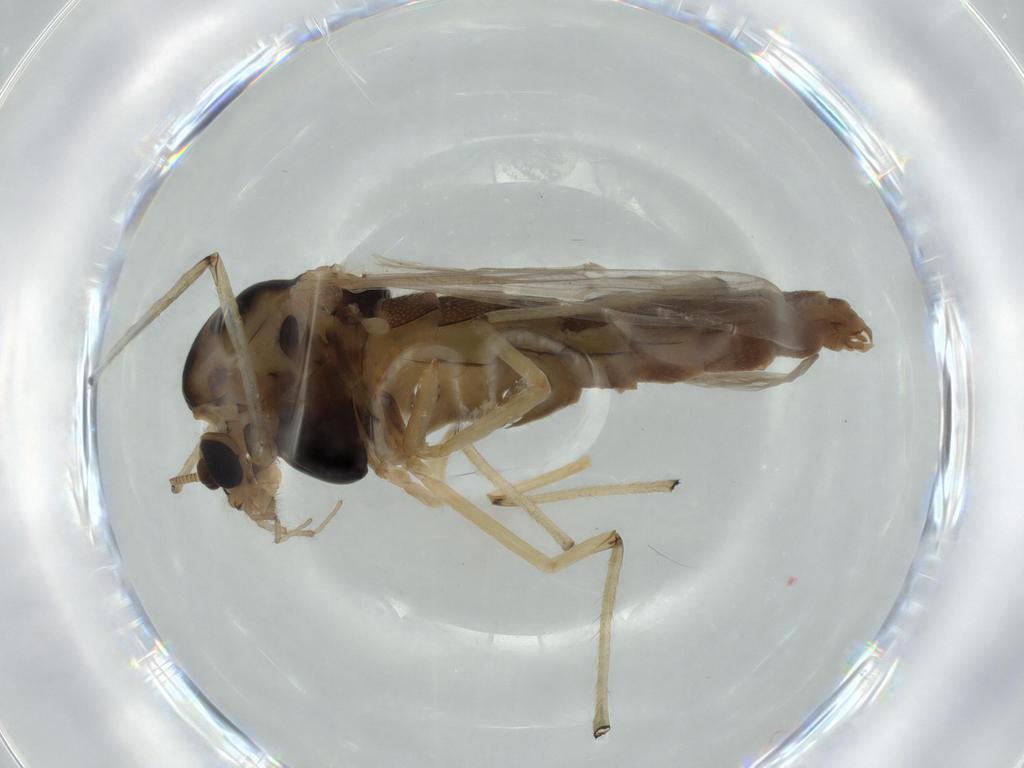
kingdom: Animalia
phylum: Arthropoda
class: Insecta
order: Diptera
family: Chironomidae
